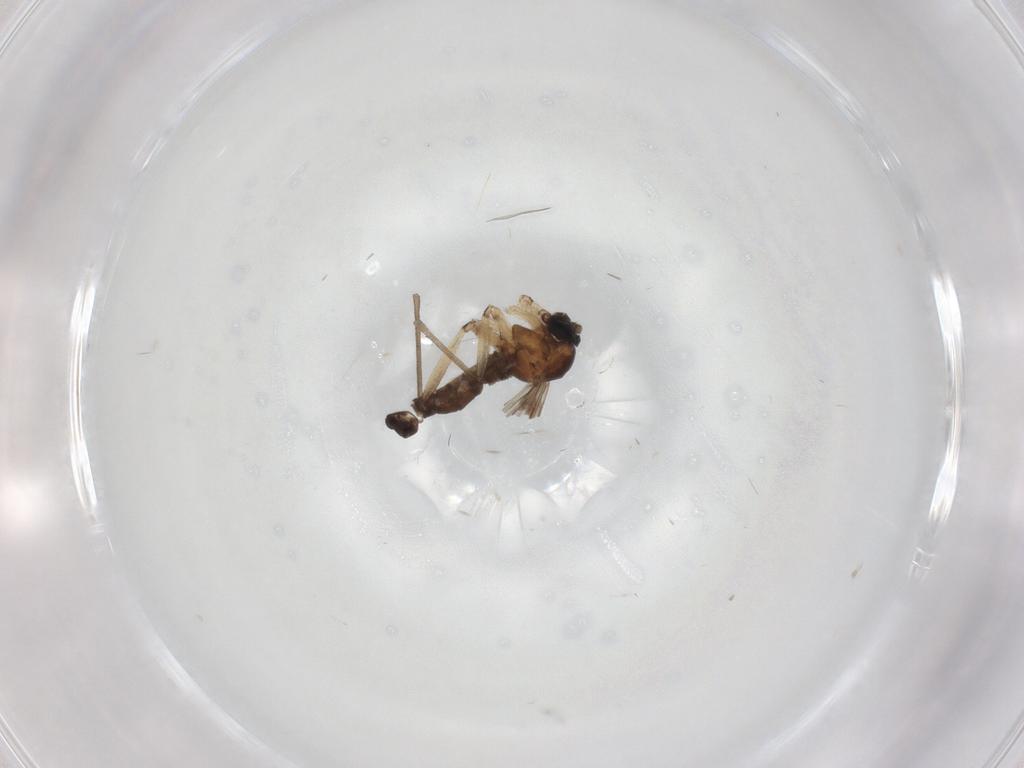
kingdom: Animalia
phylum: Arthropoda
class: Insecta
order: Diptera
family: Sciaridae
